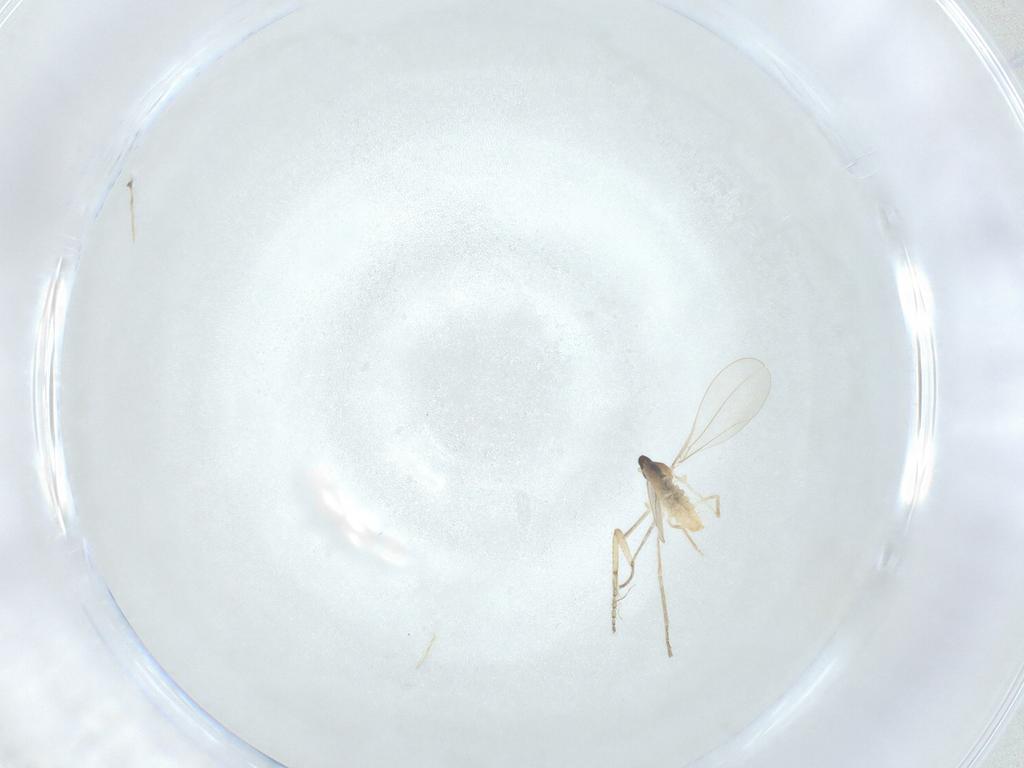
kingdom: Animalia
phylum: Arthropoda
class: Insecta
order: Diptera
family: Cecidomyiidae
